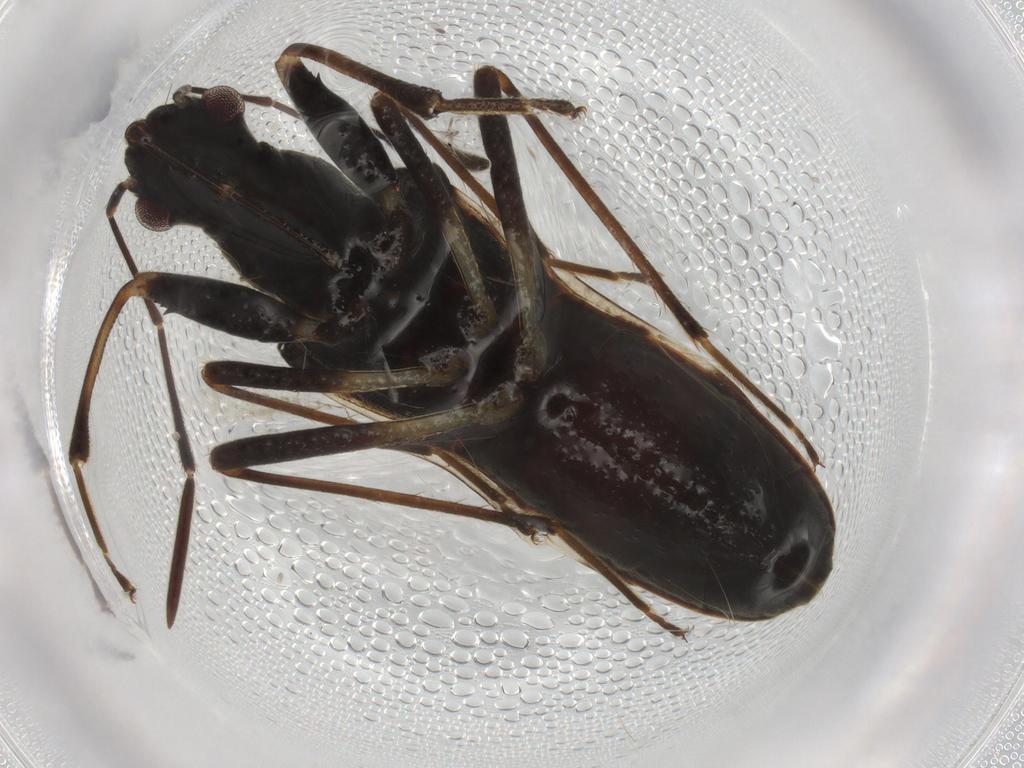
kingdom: Animalia
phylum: Arthropoda
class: Insecta
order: Hemiptera
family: Rhyparochromidae
